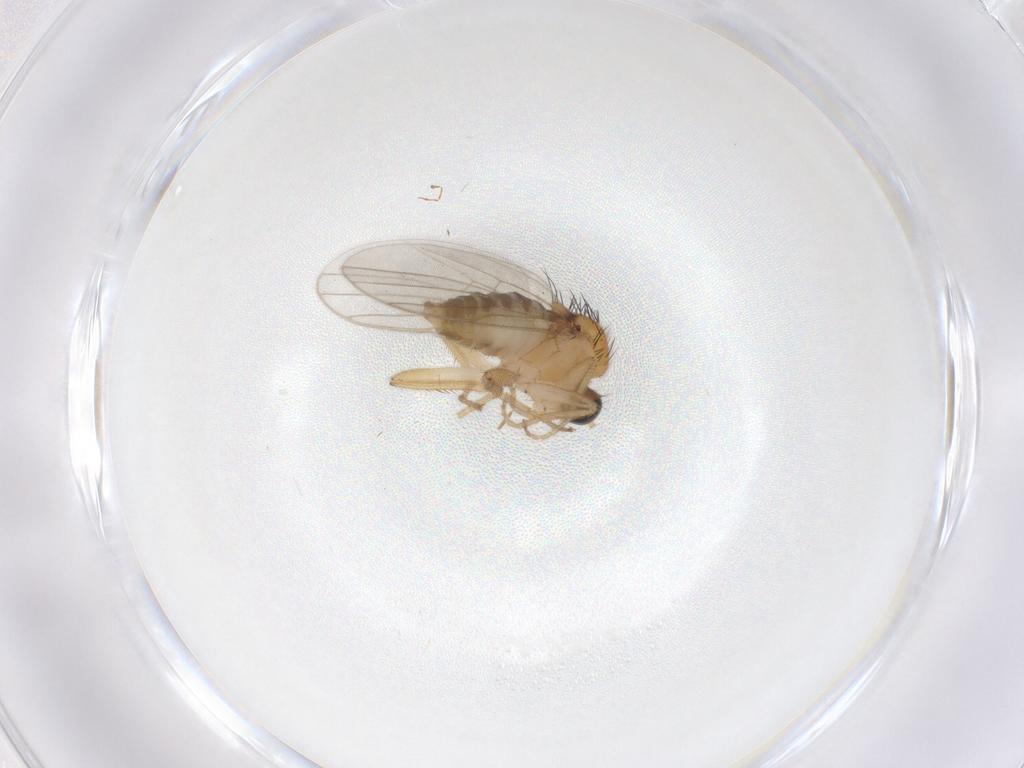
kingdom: Animalia
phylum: Arthropoda
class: Insecta
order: Diptera
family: Hybotidae
